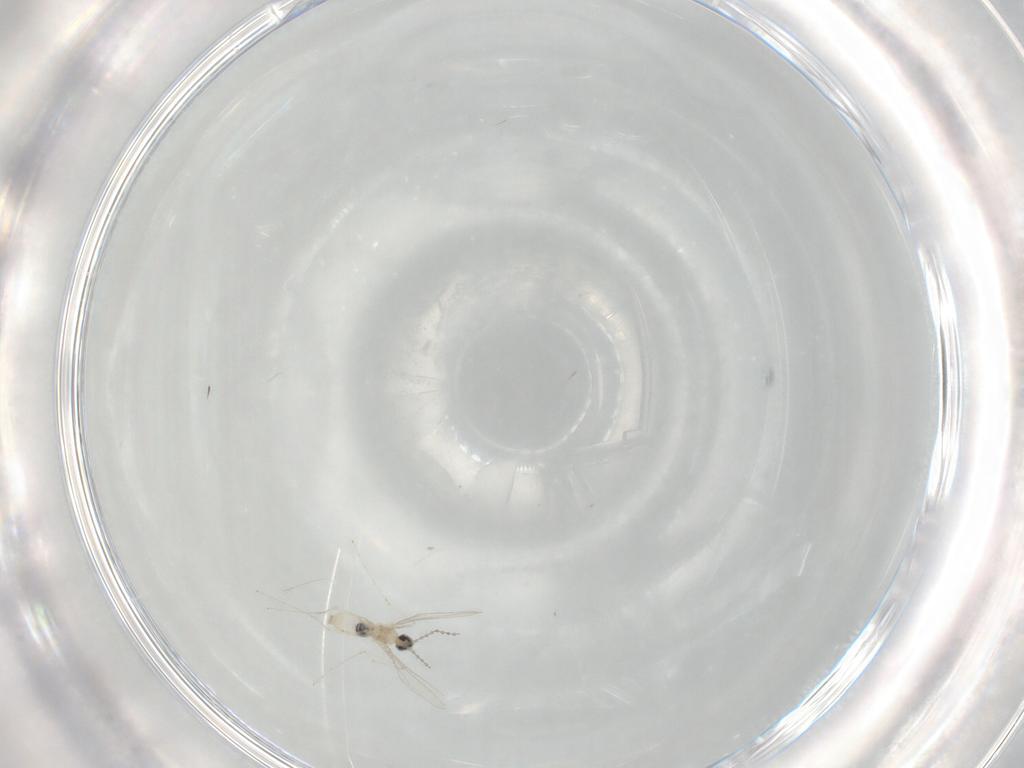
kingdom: Animalia
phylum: Arthropoda
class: Insecta
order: Diptera
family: Cecidomyiidae
